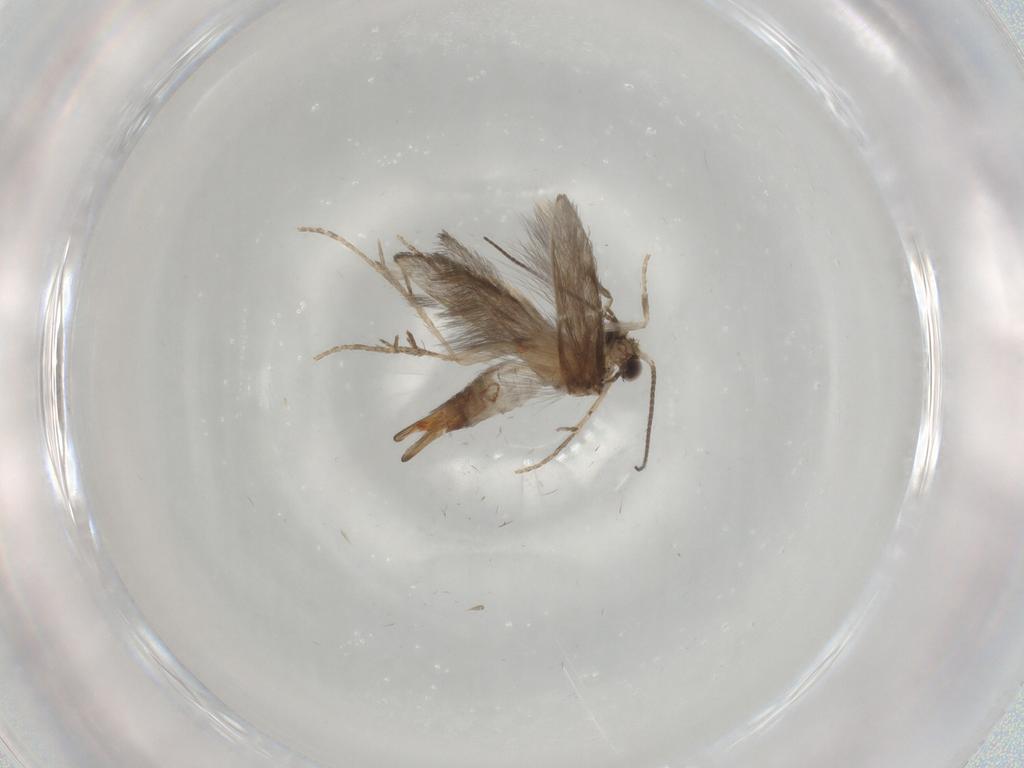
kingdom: Animalia
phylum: Arthropoda
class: Insecta
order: Trichoptera
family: Hydroptilidae
